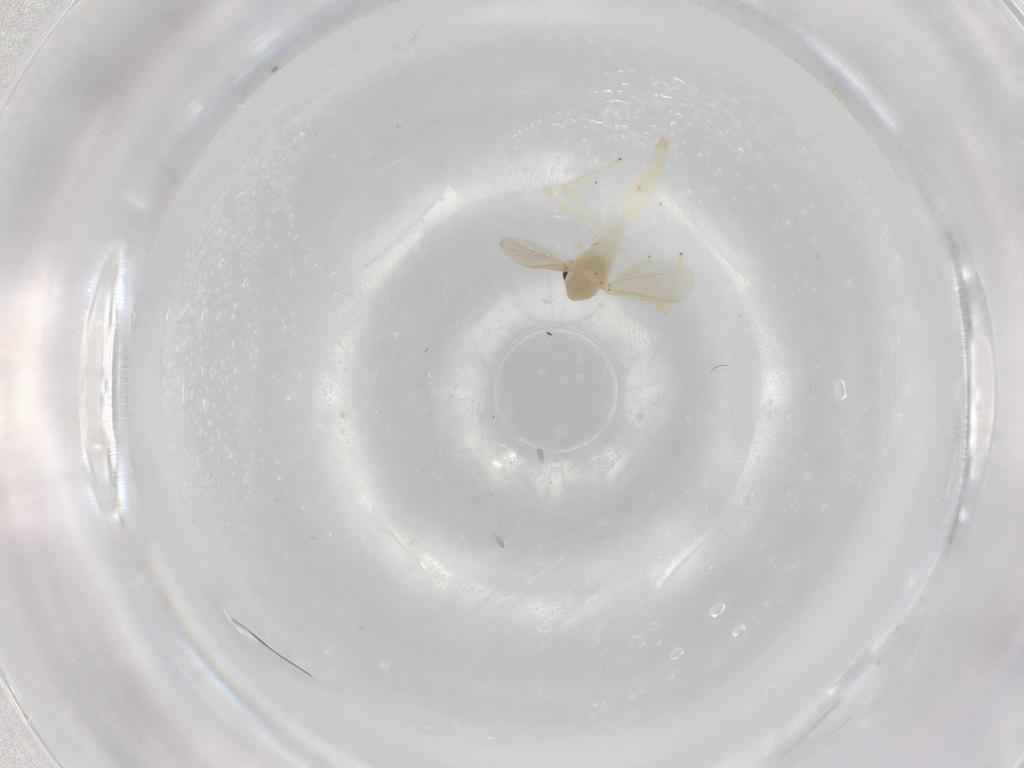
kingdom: Animalia
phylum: Arthropoda
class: Insecta
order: Diptera
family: Chironomidae
